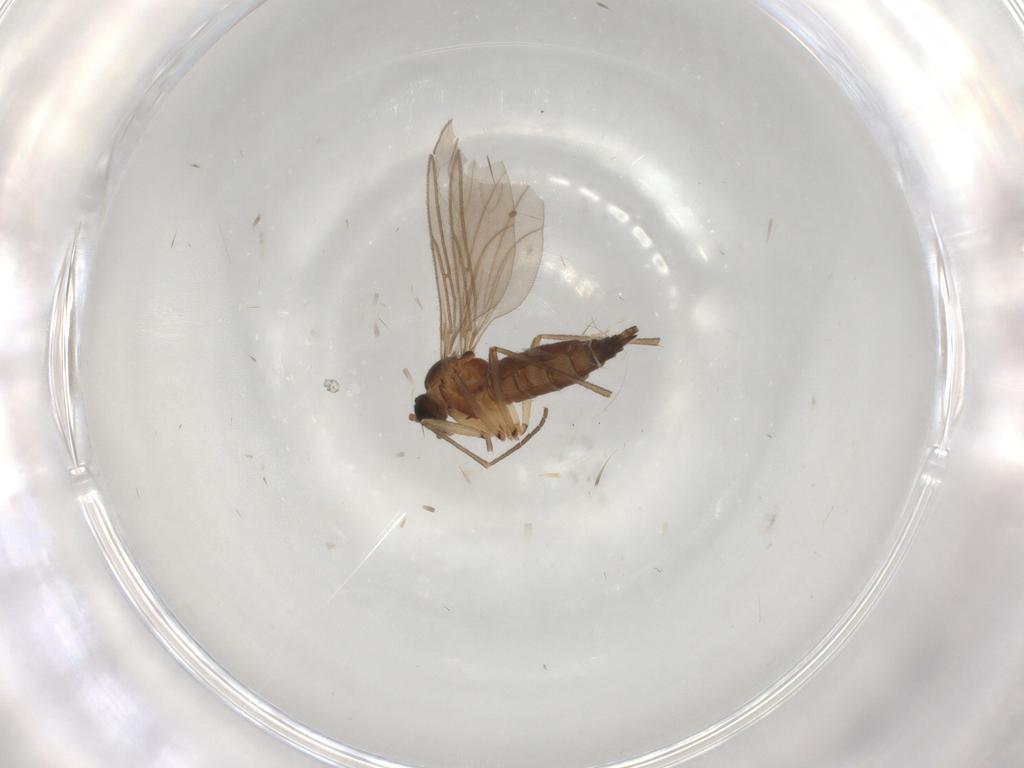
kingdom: Animalia
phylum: Arthropoda
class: Insecta
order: Diptera
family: Sciaridae
